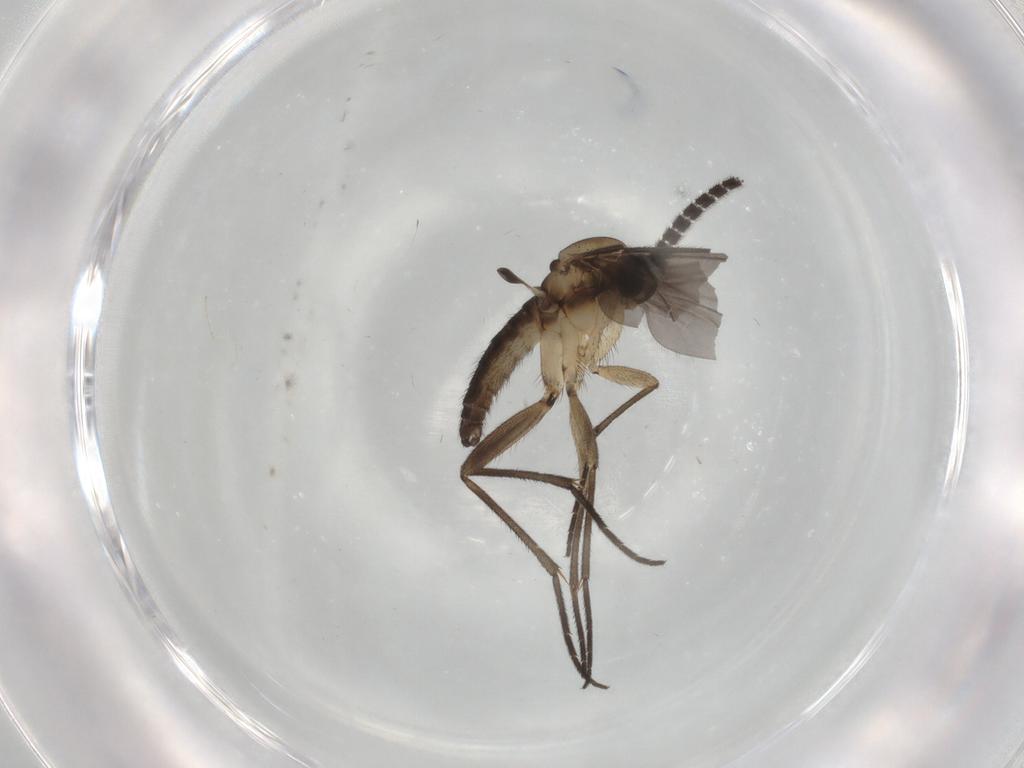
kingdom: Animalia
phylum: Arthropoda
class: Insecta
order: Diptera
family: Sciaridae
